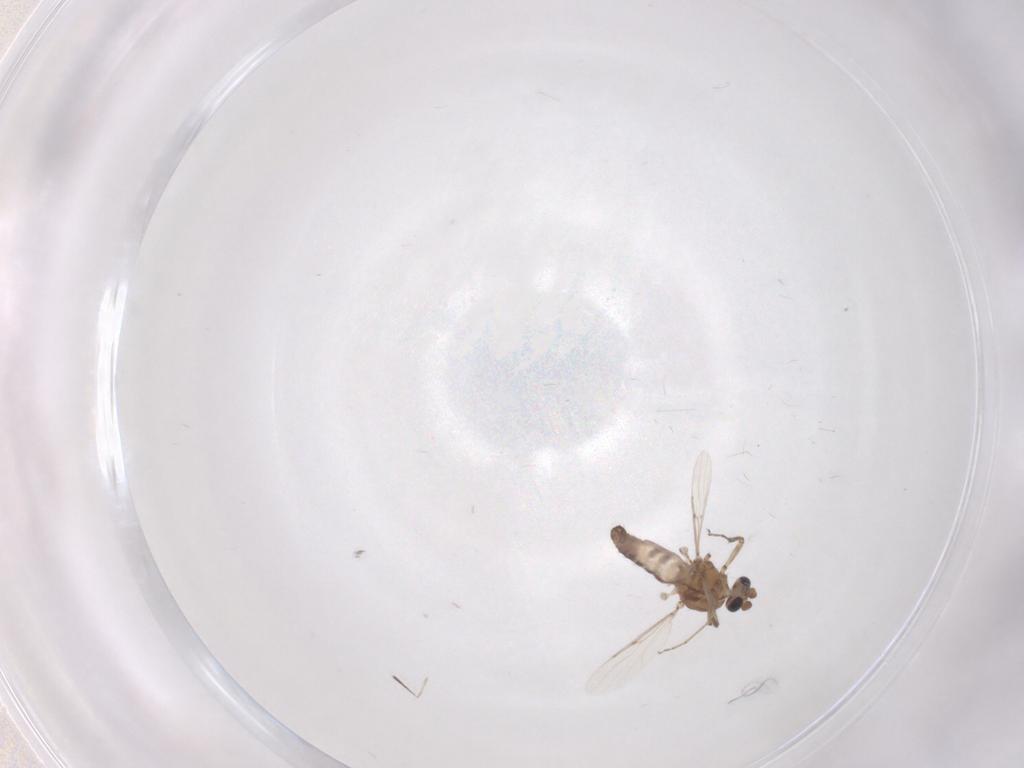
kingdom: Animalia
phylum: Arthropoda
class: Insecta
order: Diptera
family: Ceratopogonidae
